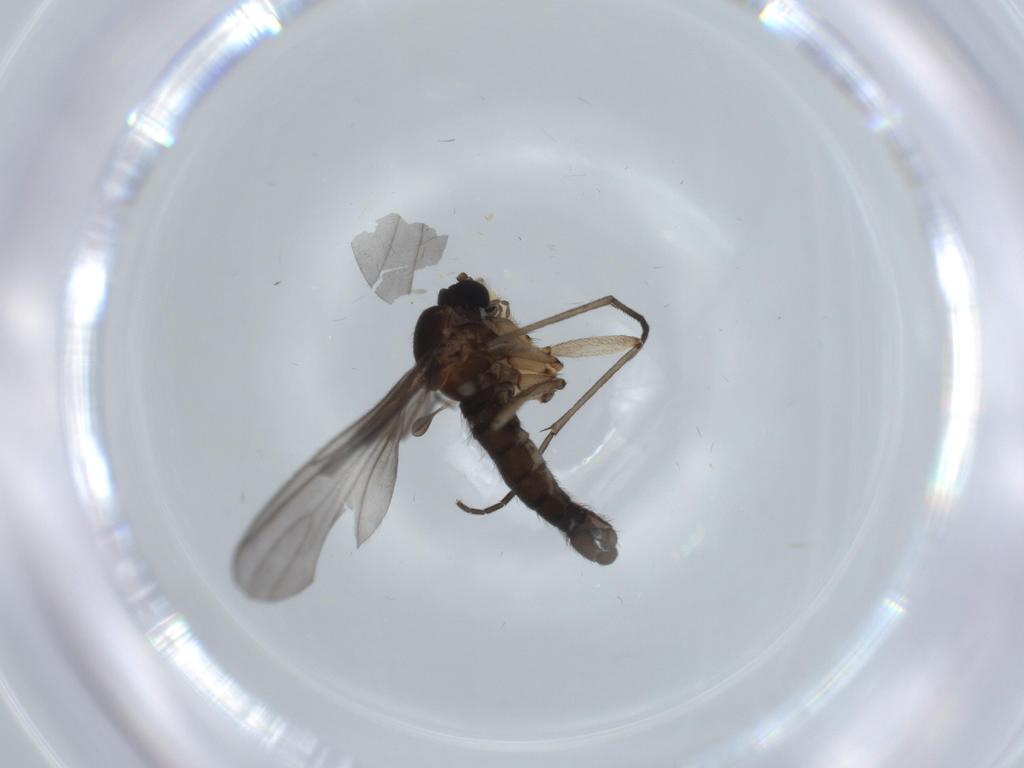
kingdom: Animalia
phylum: Arthropoda
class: Insecta
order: Diptera
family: Sciaridae
